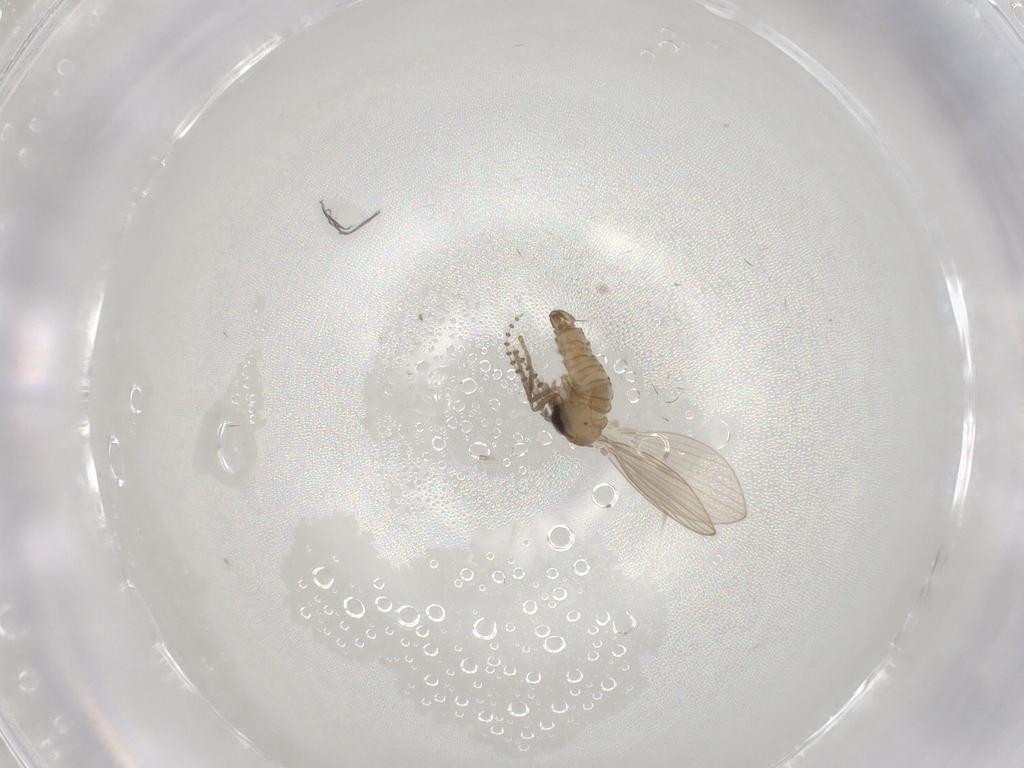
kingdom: Animalia
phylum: Arthropoda
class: Insecta
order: Diptera
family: Psychodidae
